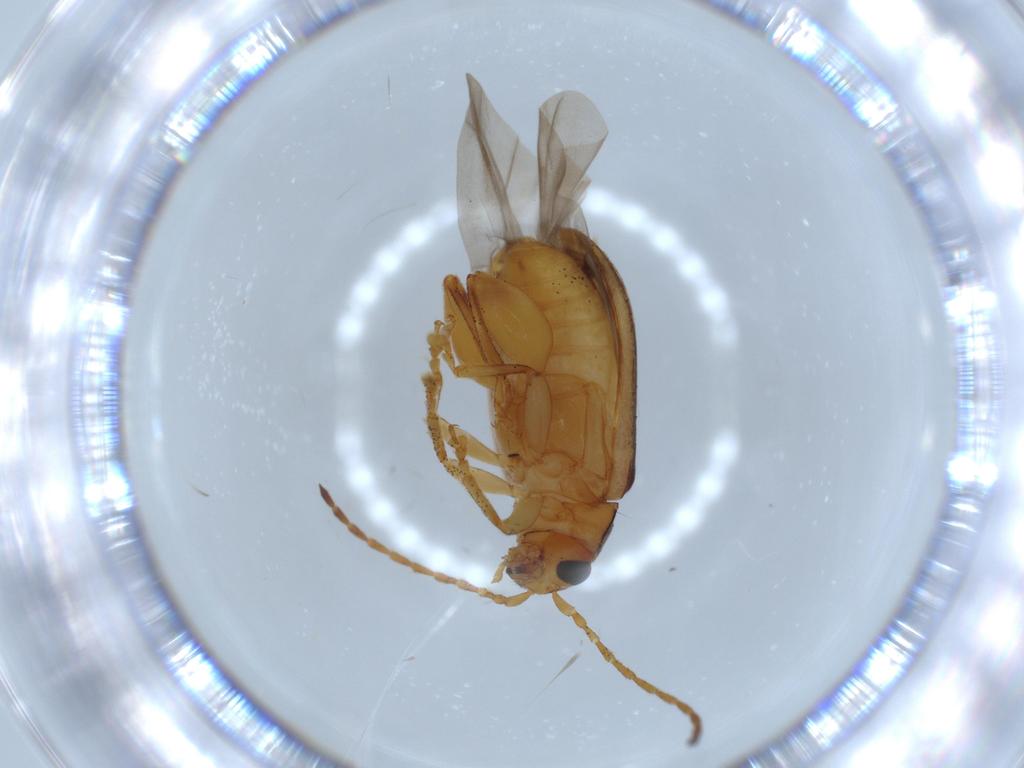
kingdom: Animalia
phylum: Arthropoda
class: Insecta
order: Coleoptera
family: Chrysomelidae
